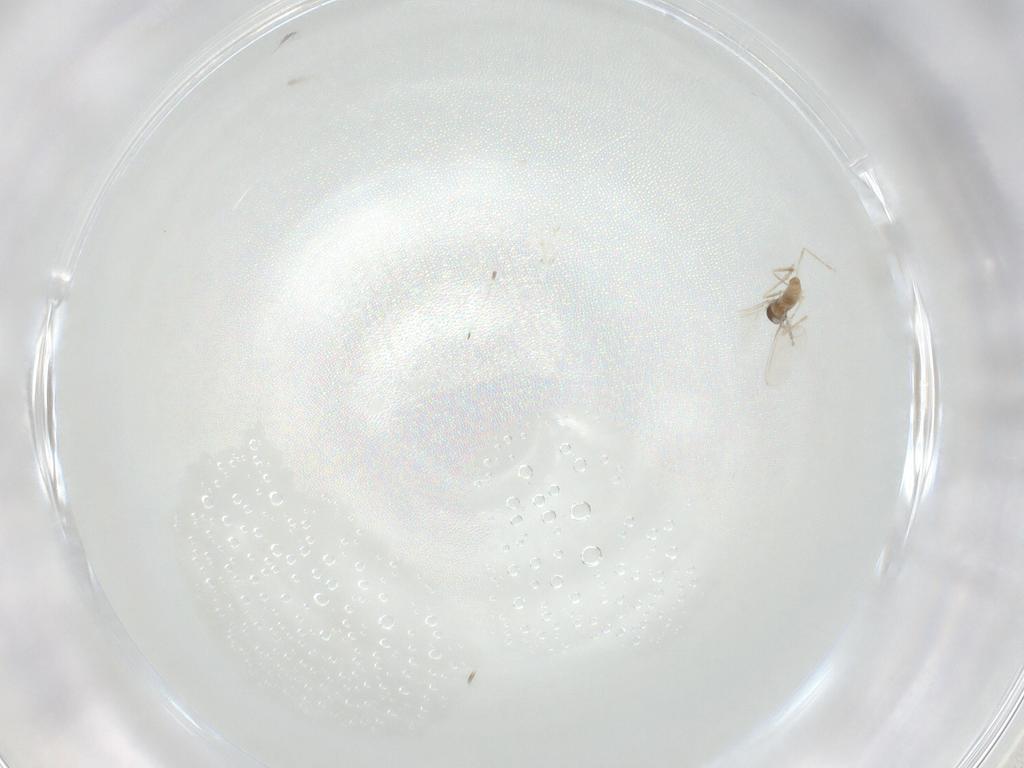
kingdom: Animalia
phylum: Arthropoda
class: Insecta
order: Diptera
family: Cecidomyiidae
